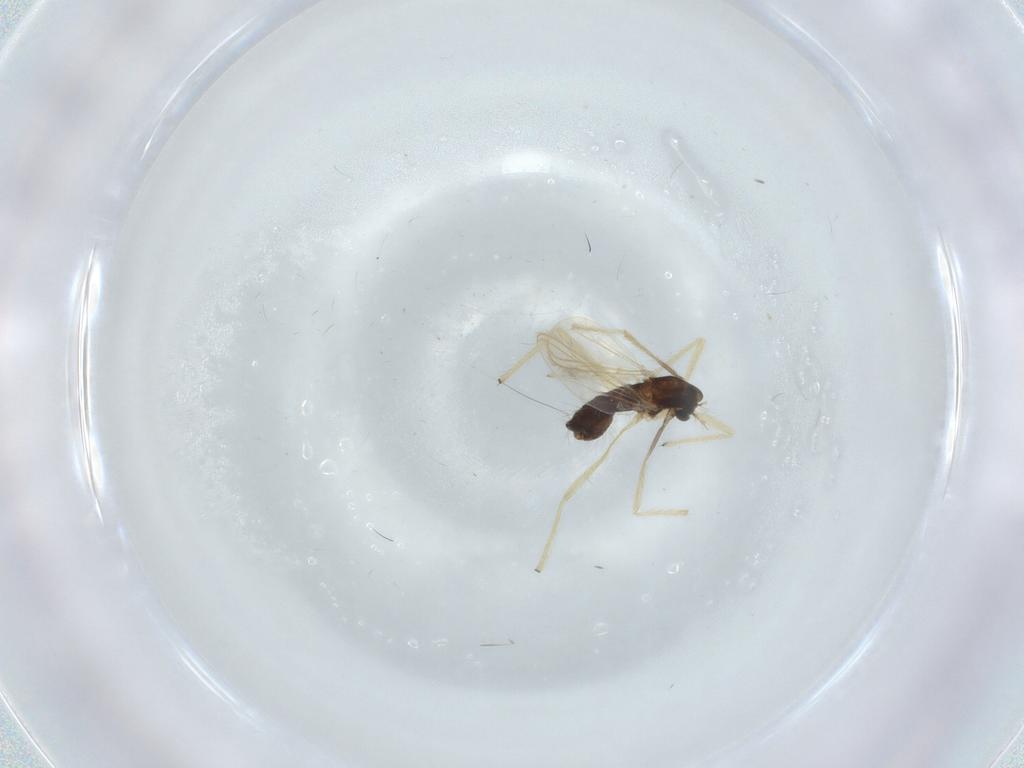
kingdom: Animalia
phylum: Arthropoda
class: Insecta
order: Diptera
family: Chironomidae
